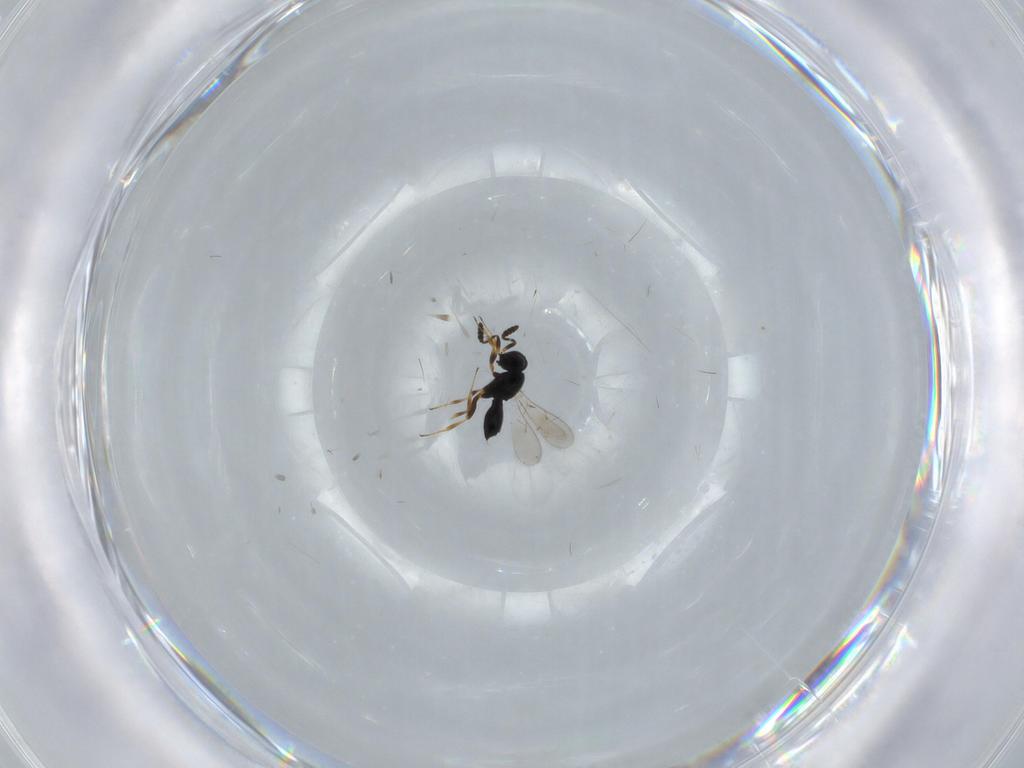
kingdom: Animalia
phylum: Arthropoda
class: Insecta
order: Hymenoptera
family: Scelionidae
